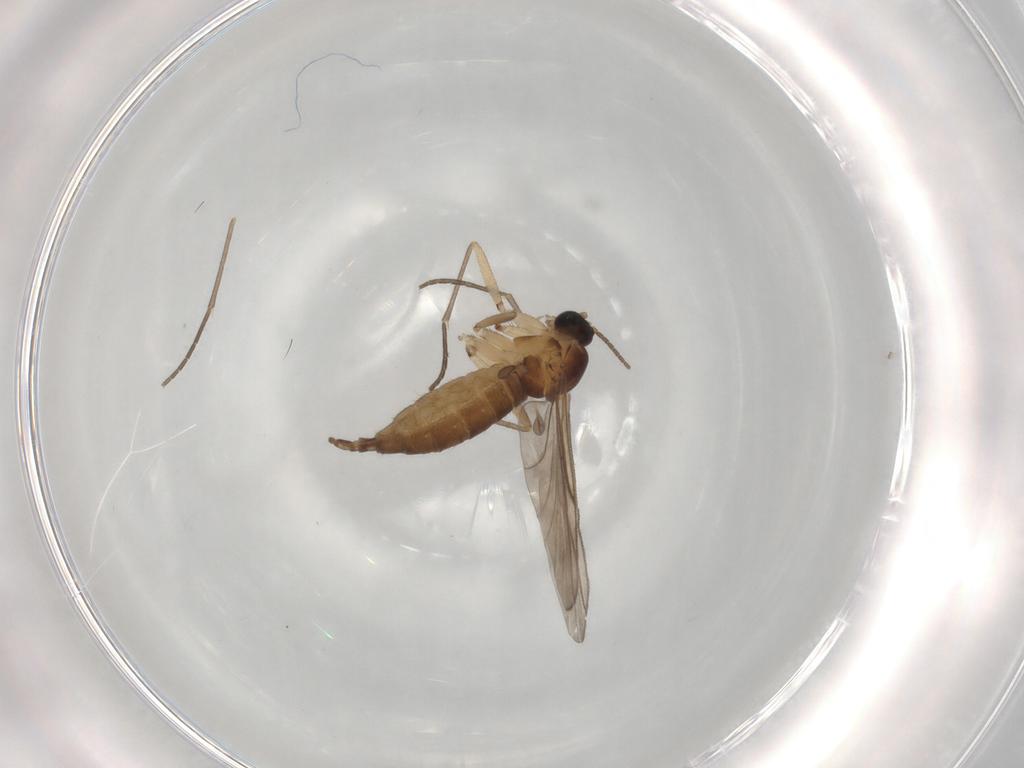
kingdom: Animalia
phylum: Arthropoda
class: Insecta
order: Diptera
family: Sciaridae
